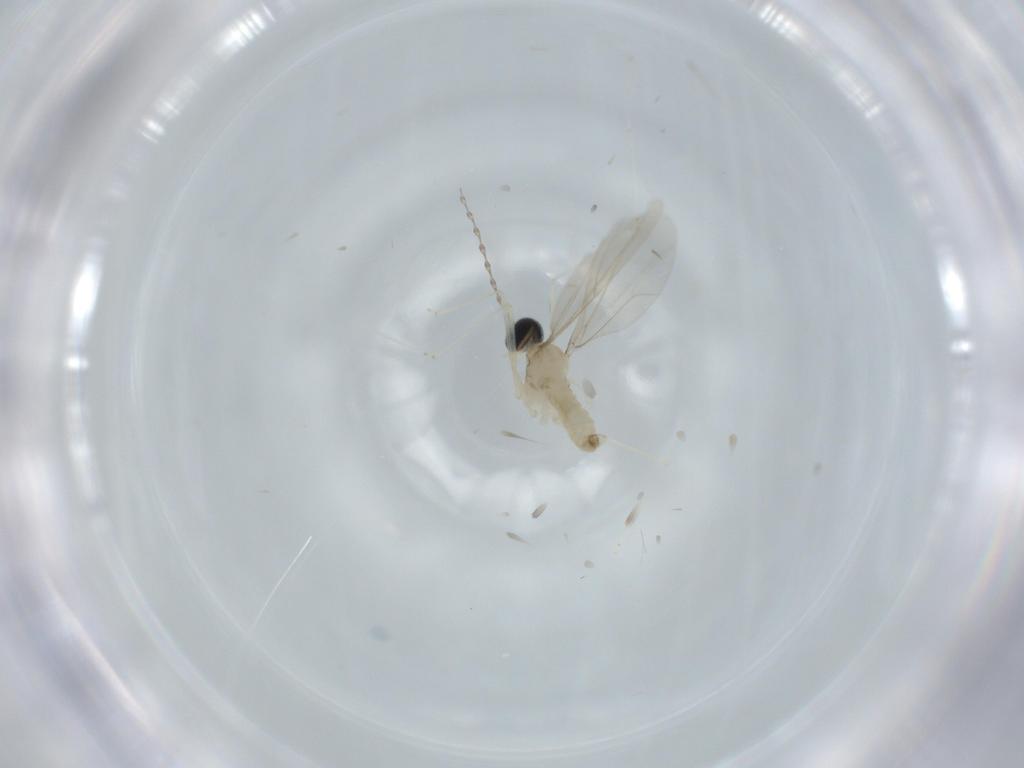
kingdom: Animalia
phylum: Arthropoda
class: Insecta
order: Diptera
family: Cecidomyiidae
